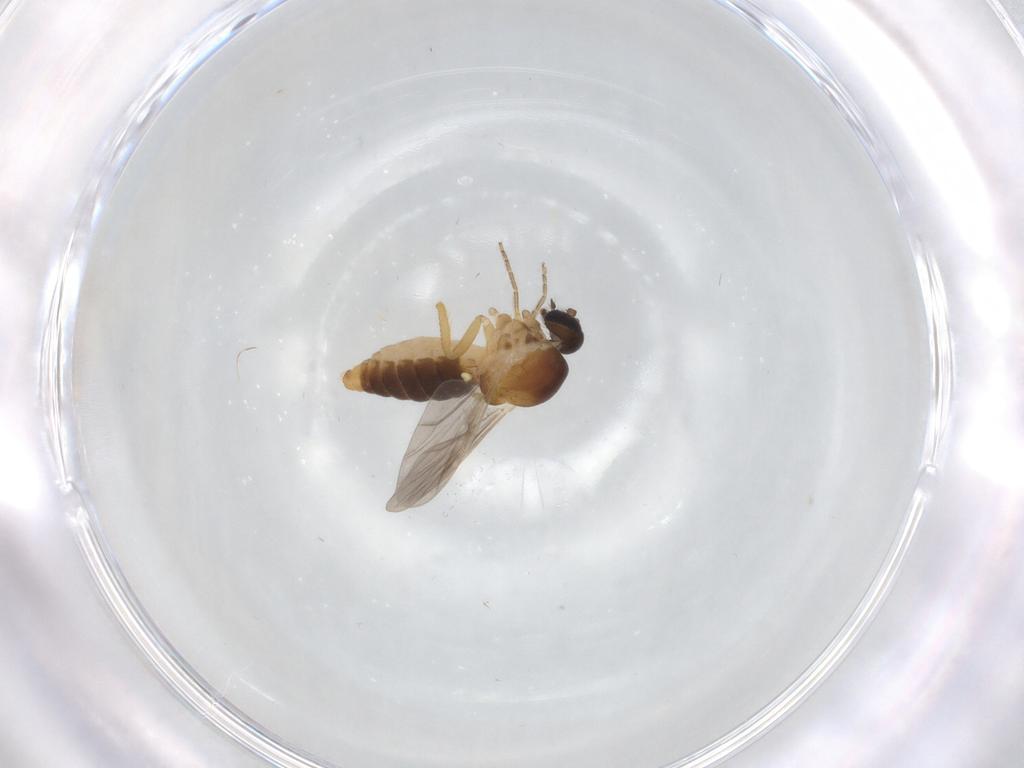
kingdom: Animalia
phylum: Arthropoda
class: Insecta
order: Diptera
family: Ceratopogonidae
